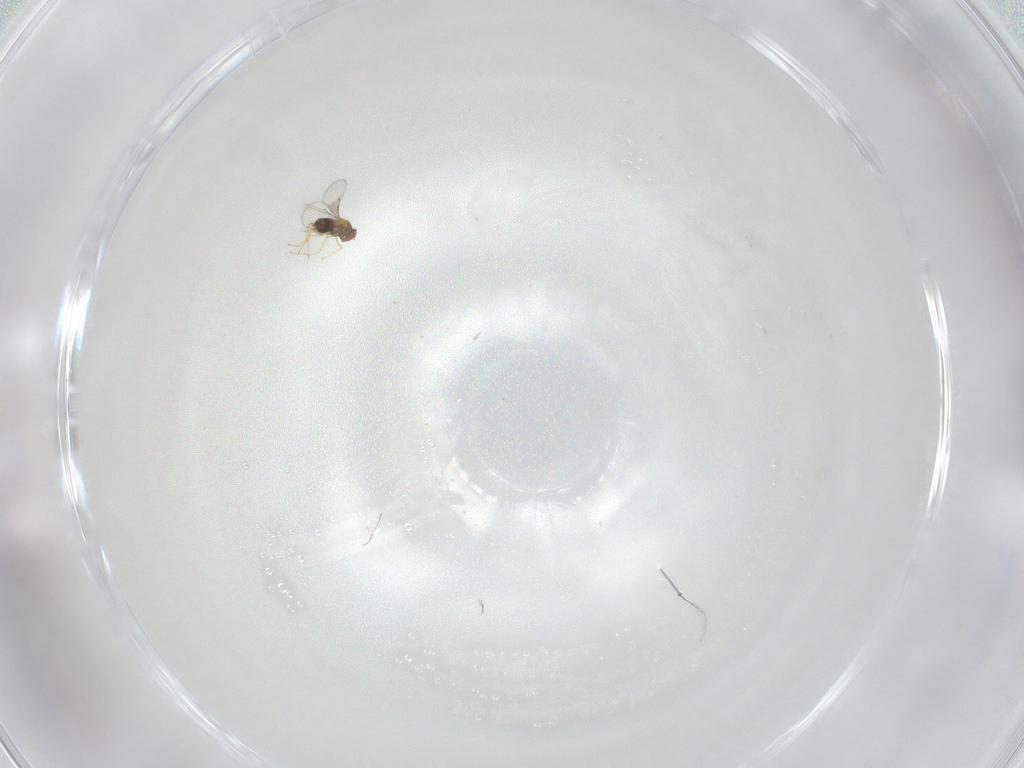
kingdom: Animalia
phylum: Arthropoda
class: Insecta
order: Hymenoptera
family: Trichogrammatidae
